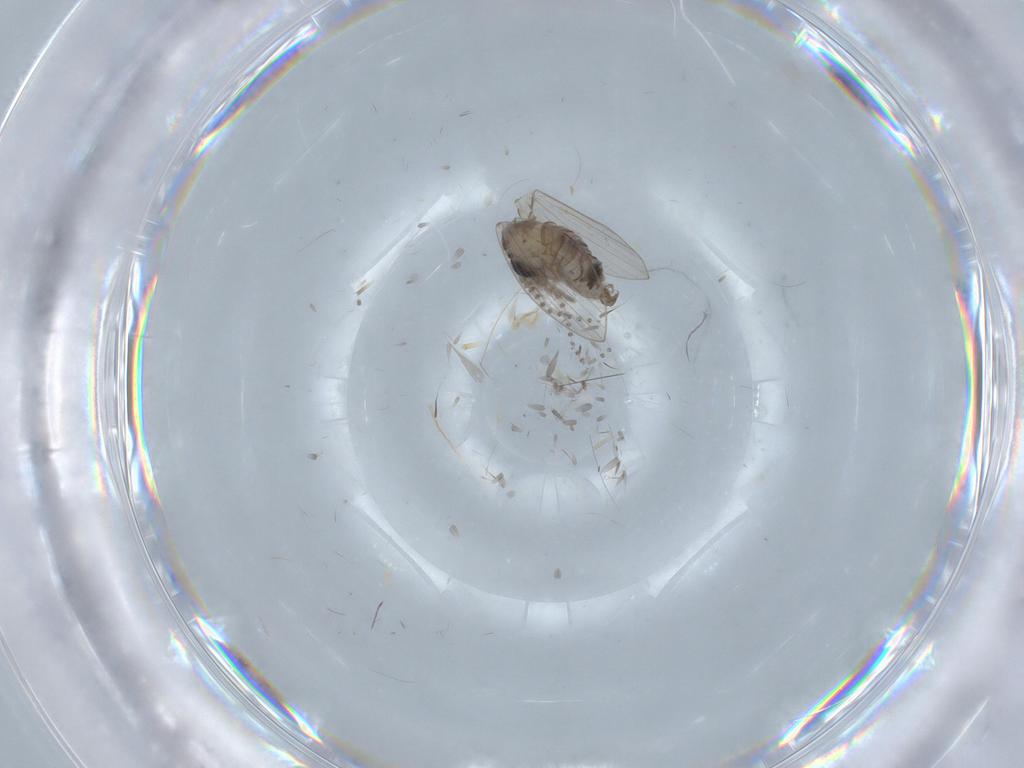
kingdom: Animalia
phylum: Arthropoda
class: Insecta
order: Diptera
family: Psychodidae
